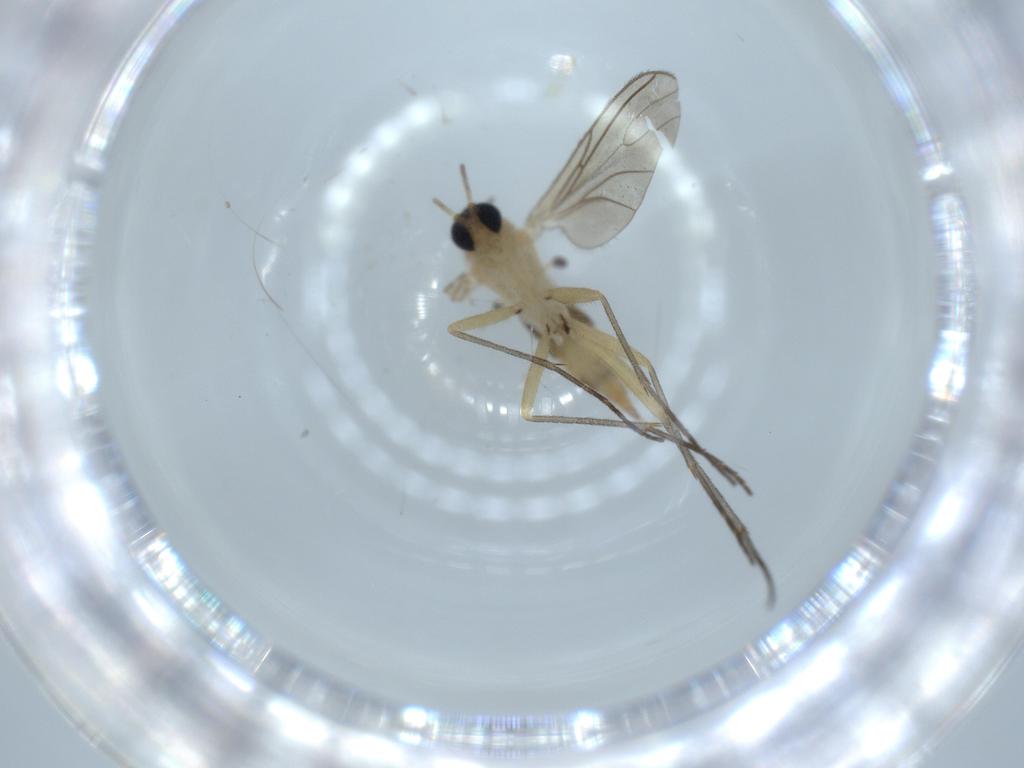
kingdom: Animalia
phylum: Arthropoda
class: Insecta
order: Diptera
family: Sciaridae
